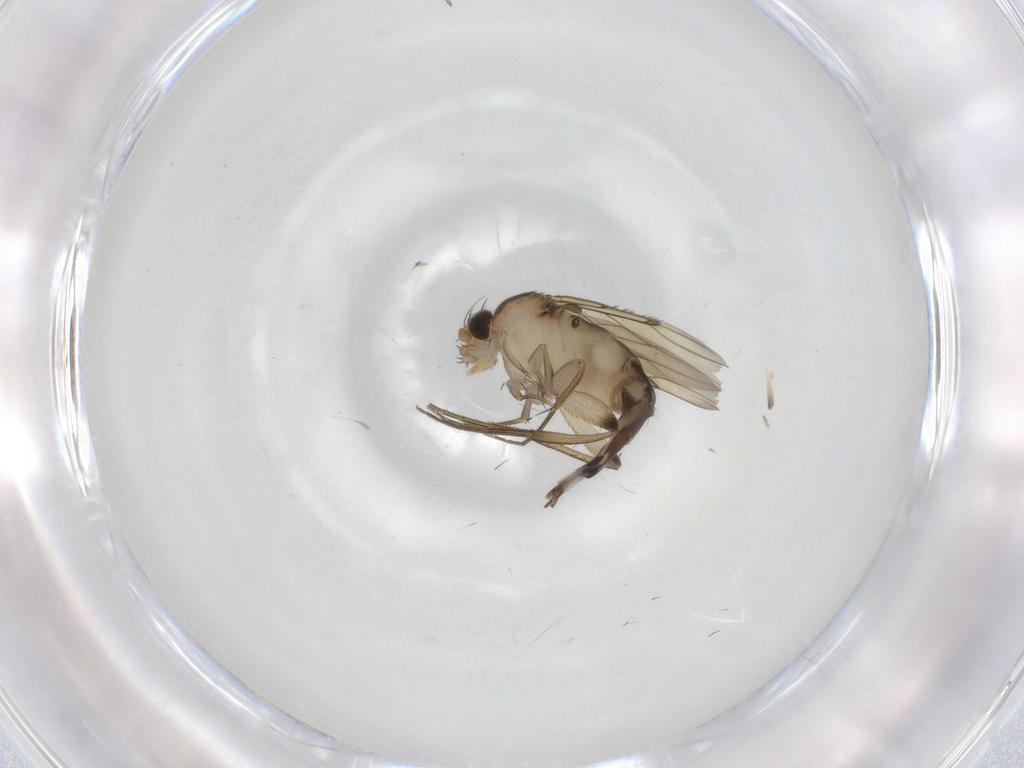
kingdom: Animalia
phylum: Arthropoda
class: Insecta
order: Diptera
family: Phoridae
